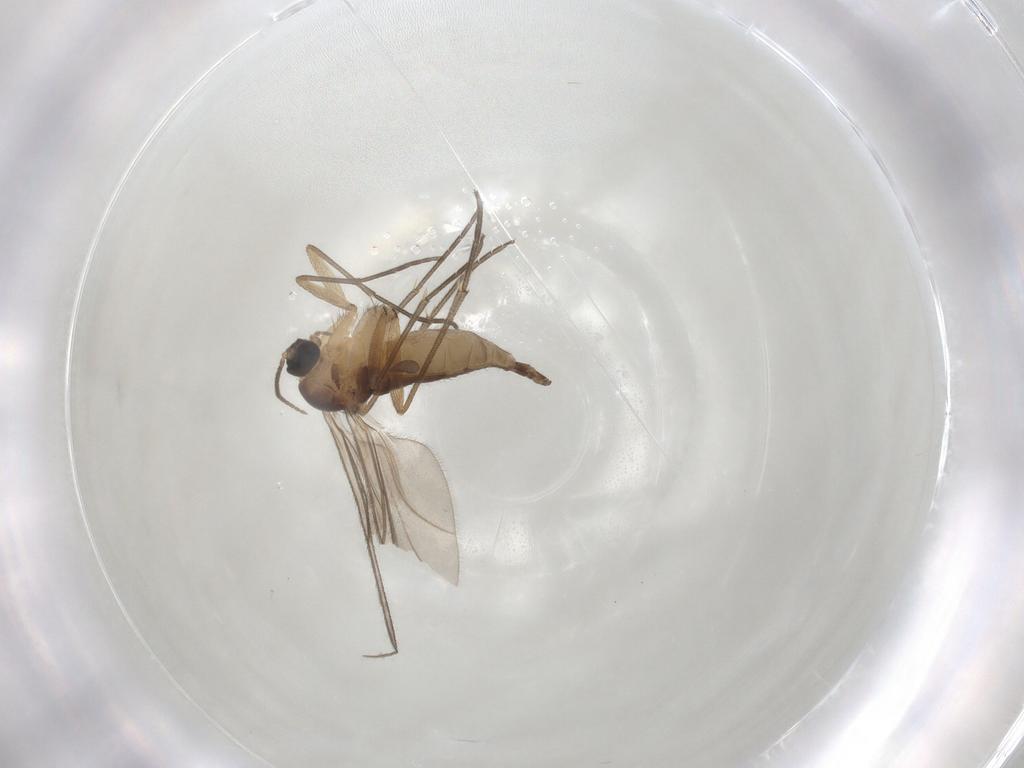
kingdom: Animalia
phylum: Arthropoda
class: Insecta
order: Diptera
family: Sciaridae
